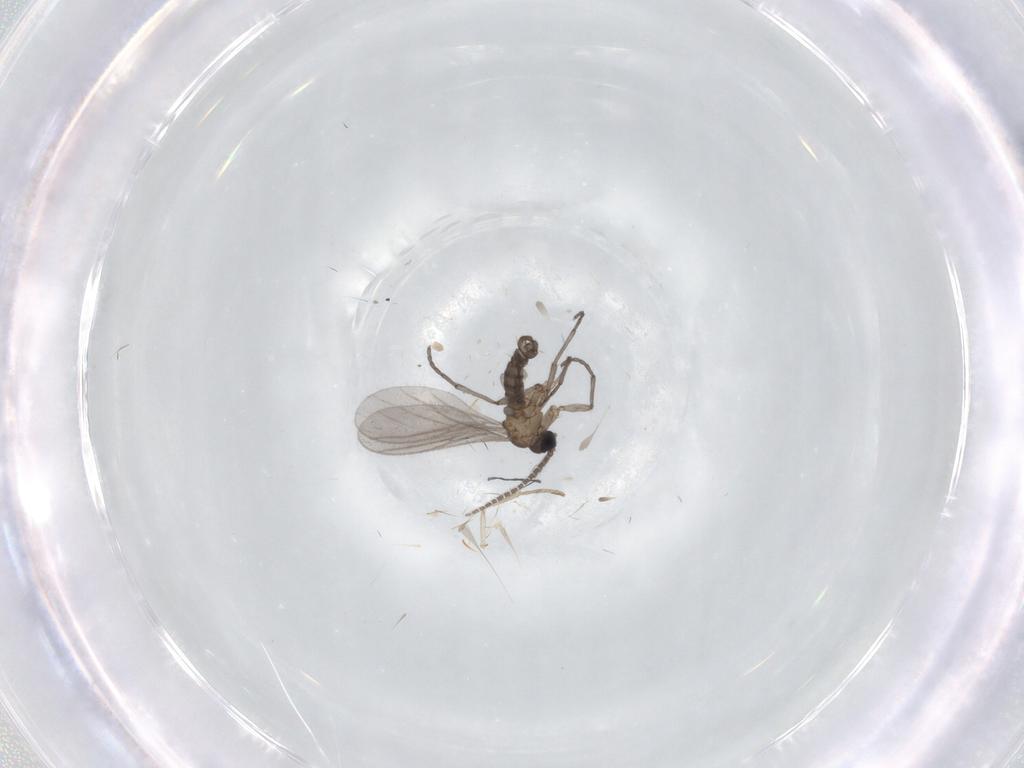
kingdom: Animalia
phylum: Arthropoda
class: Insecta
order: Diptera
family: Sciaridae
